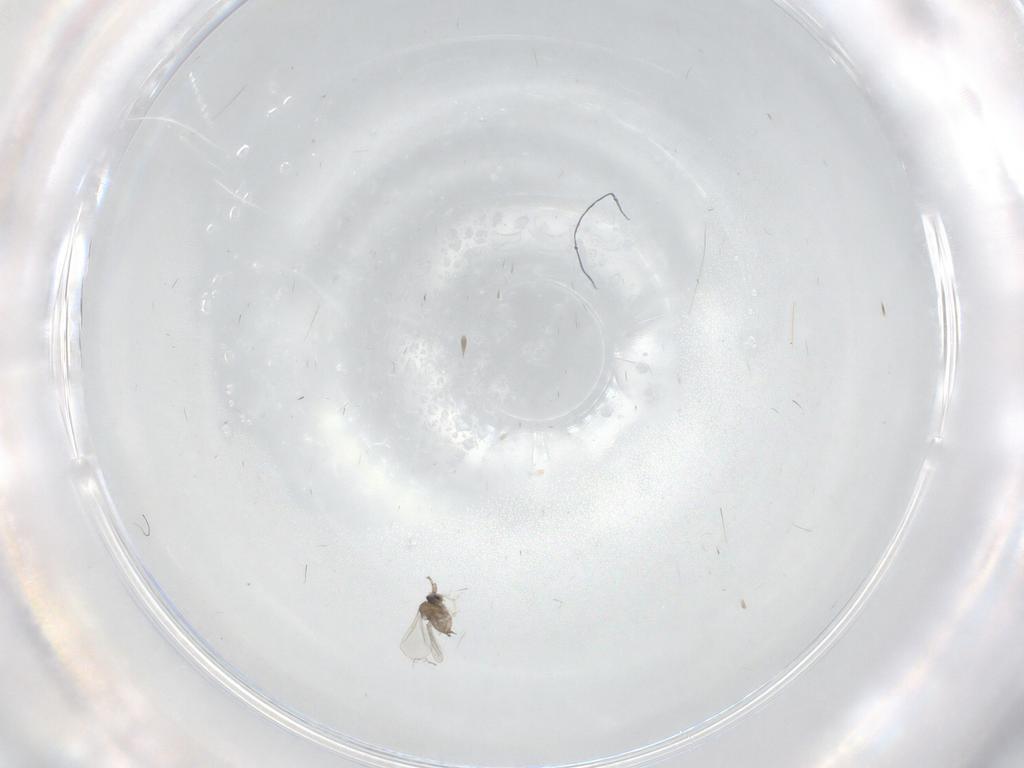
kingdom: Animalia
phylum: Arthropoda
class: Insecta
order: Diptera
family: Cecidomyiidae
